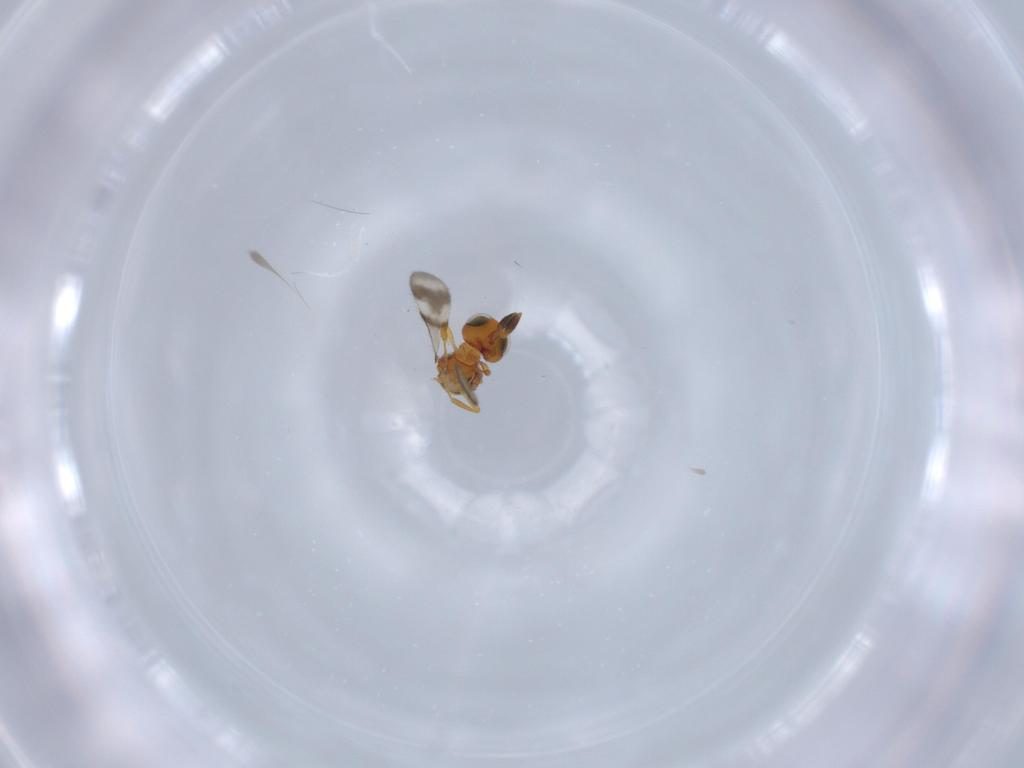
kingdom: Animalia
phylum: Arthropoda
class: Insecta
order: Hymenoptera
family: Scelionidae
